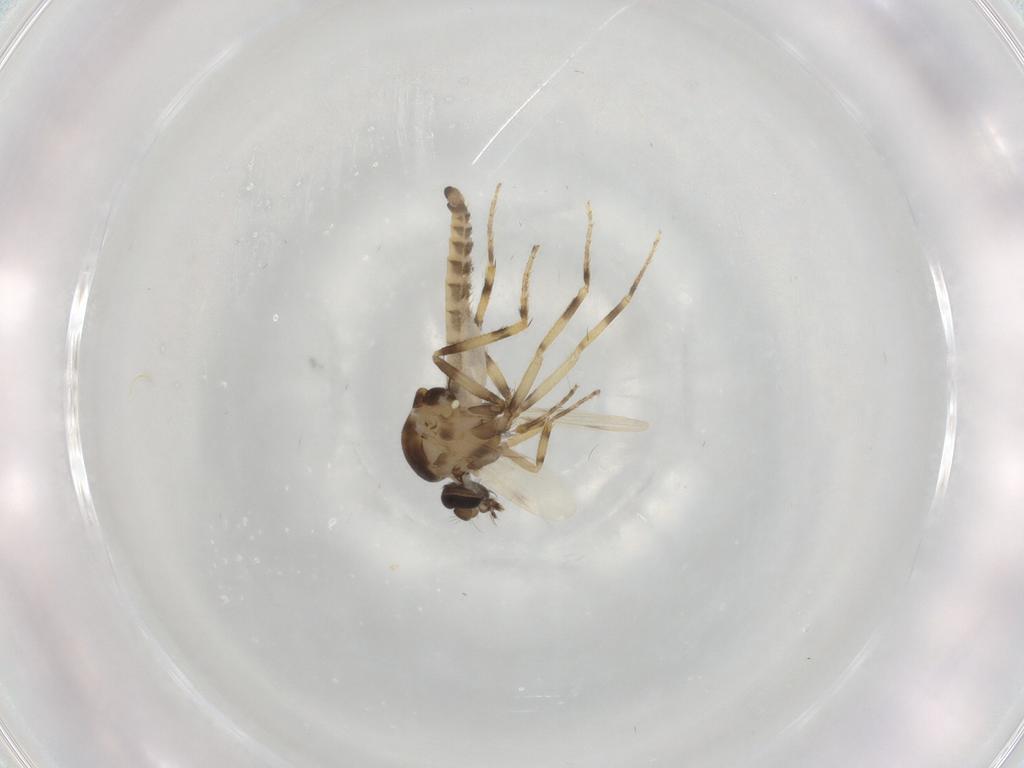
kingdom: Animalia
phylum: Arthropoda
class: Insecta
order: Diptera
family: Ceratopogonidae
